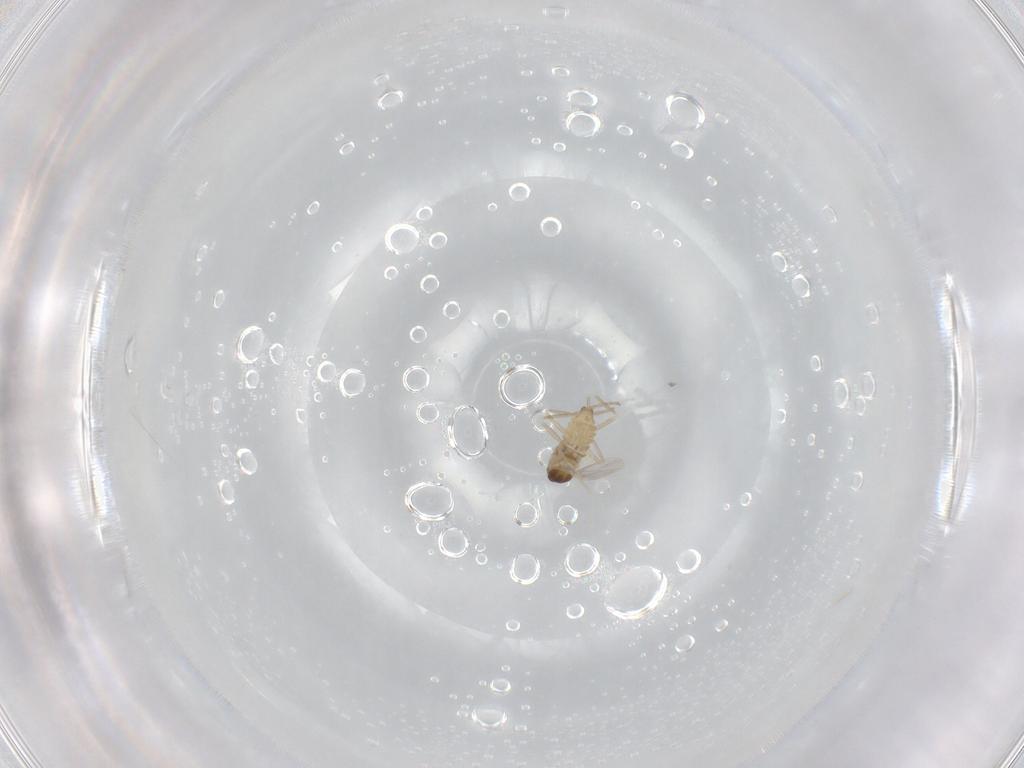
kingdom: Animalia
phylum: Arthropoda
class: Insecta
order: Diptera
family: Cecidomyiidae
